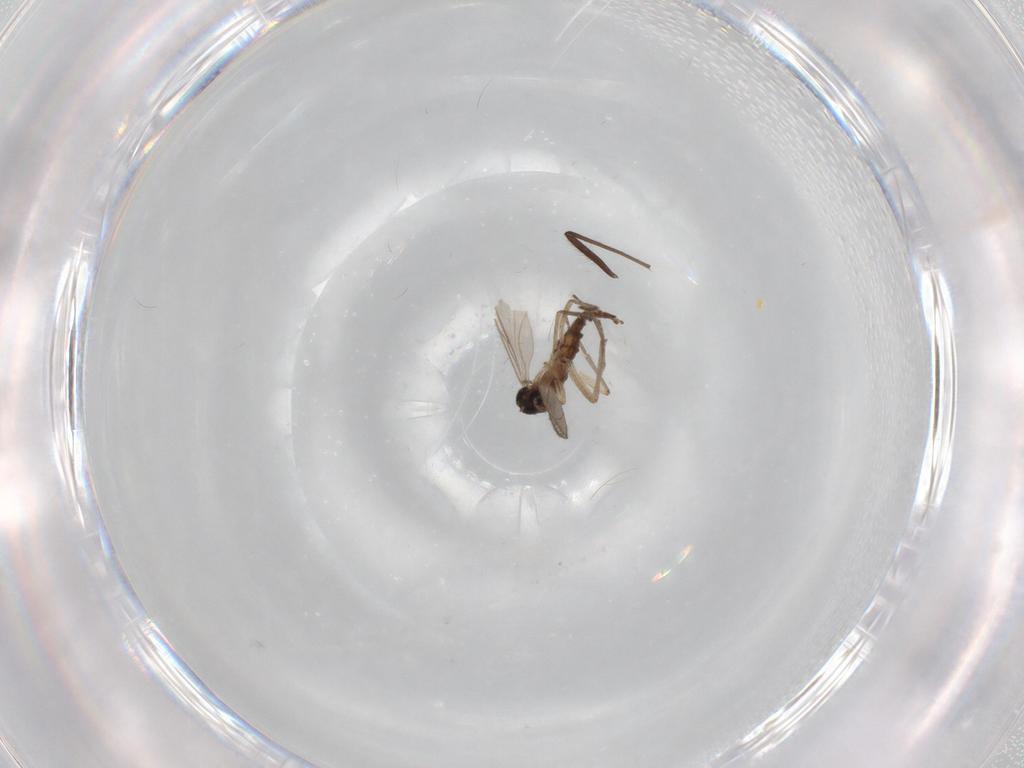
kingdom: Animalia
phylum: Arthropoda
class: Insecta
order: Diptera
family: Sciaridae
